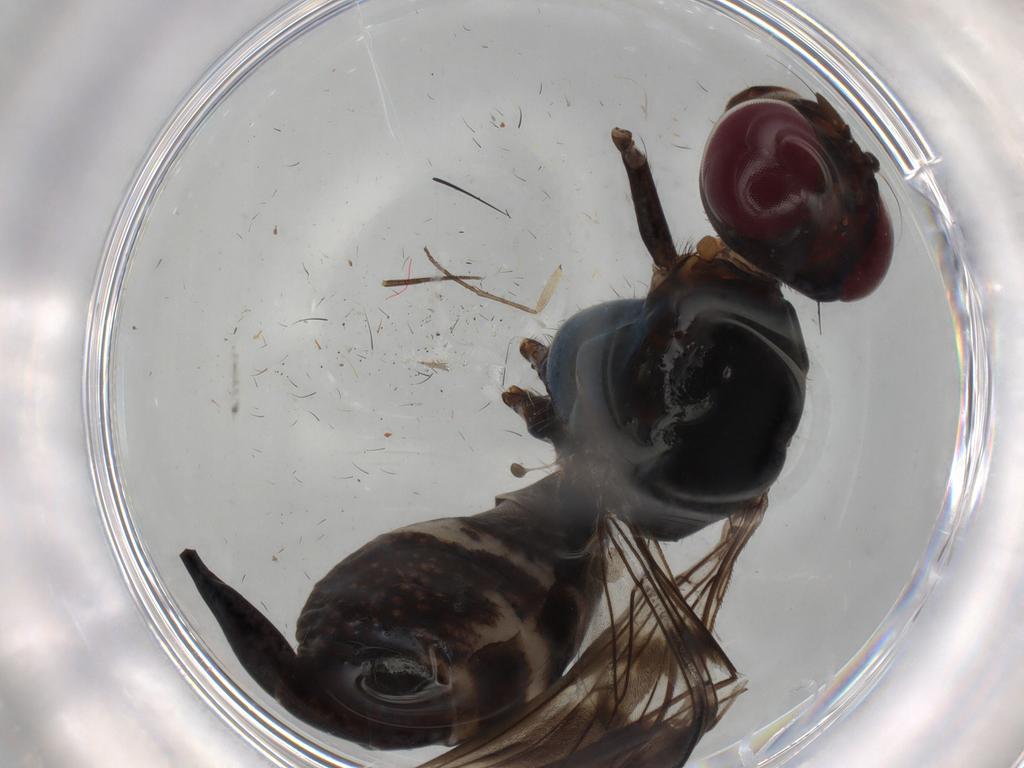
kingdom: Animalia
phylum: Arthropoda
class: Insecta
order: Diptera
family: Micropezidae
